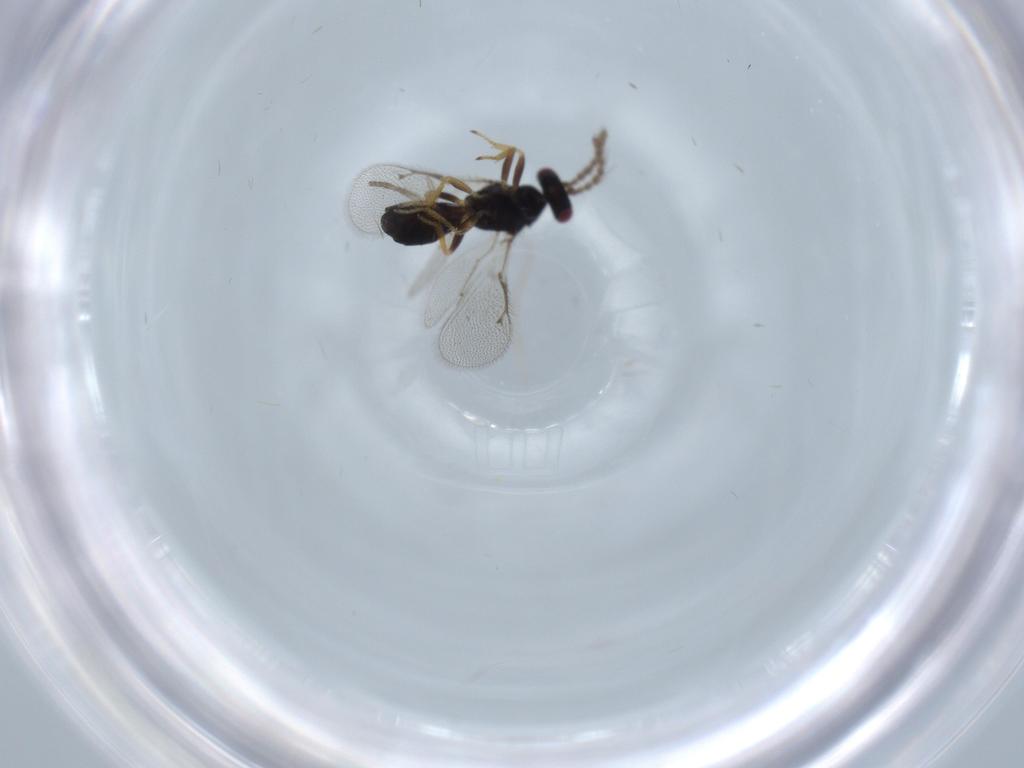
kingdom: Animalia
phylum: Arthropoda
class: Insecta
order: Hymenoptera
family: Eulophidae
